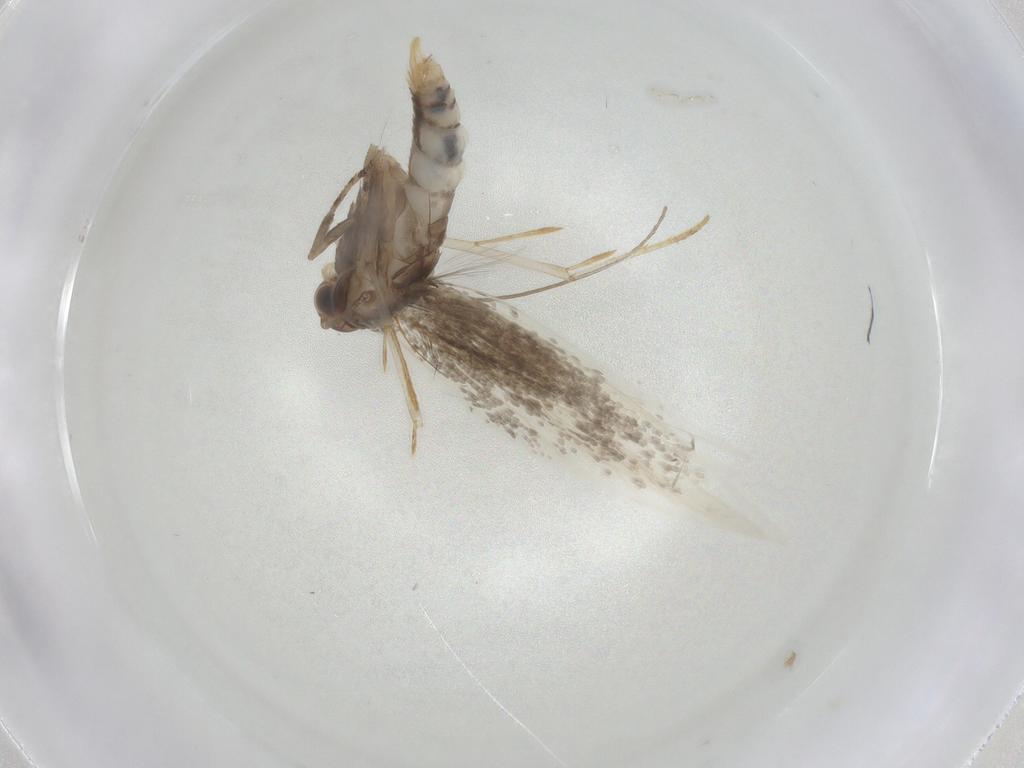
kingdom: Animalia
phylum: Arthropoda
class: Insecta
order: Lepidoptera
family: Elachistidae
